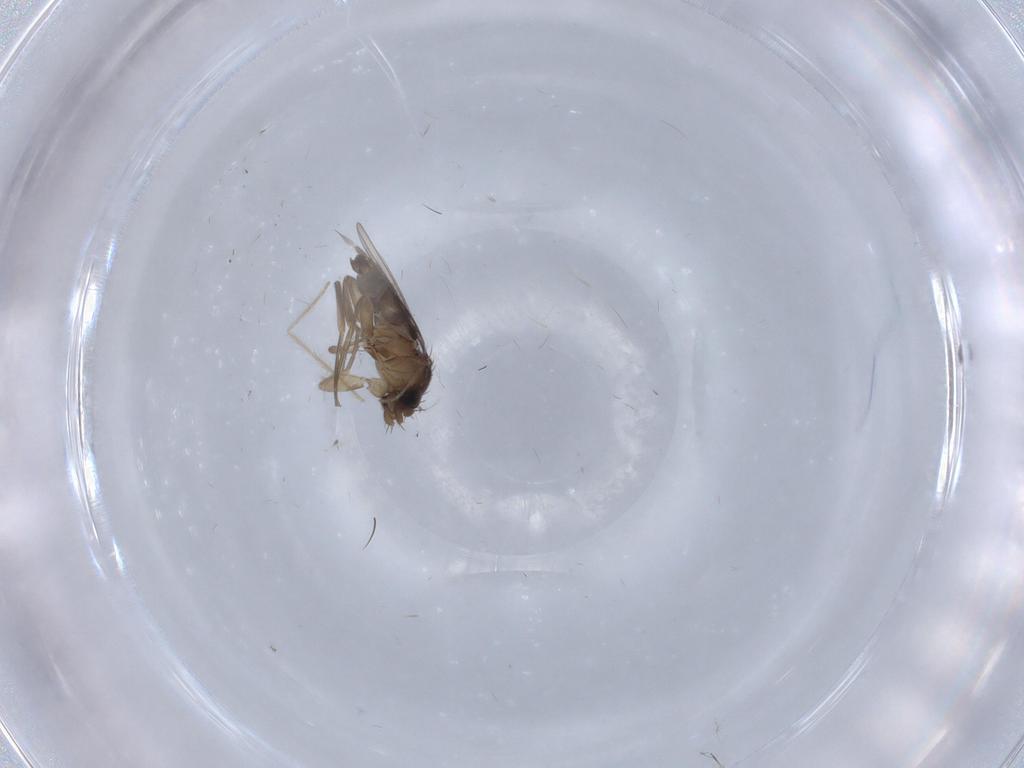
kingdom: Animalia
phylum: Arthropoda
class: Insecta
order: Diptera
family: Phoridae
